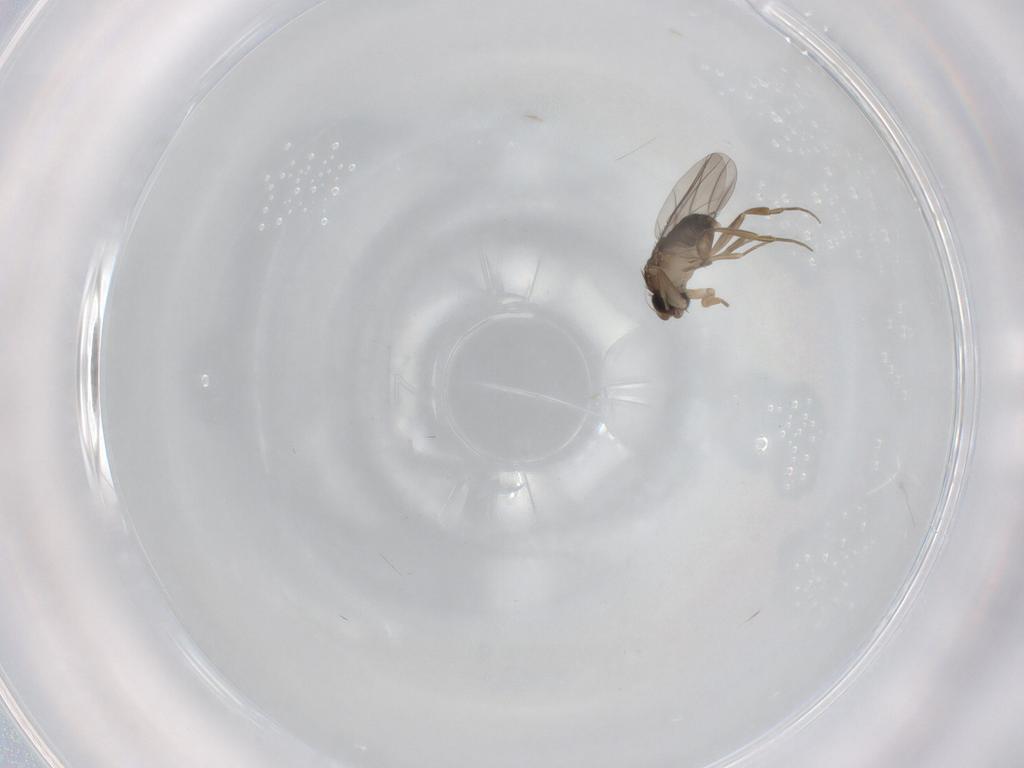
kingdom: Animalia
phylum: Arthropoda
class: Insecta
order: Diptera
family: Phoridae
